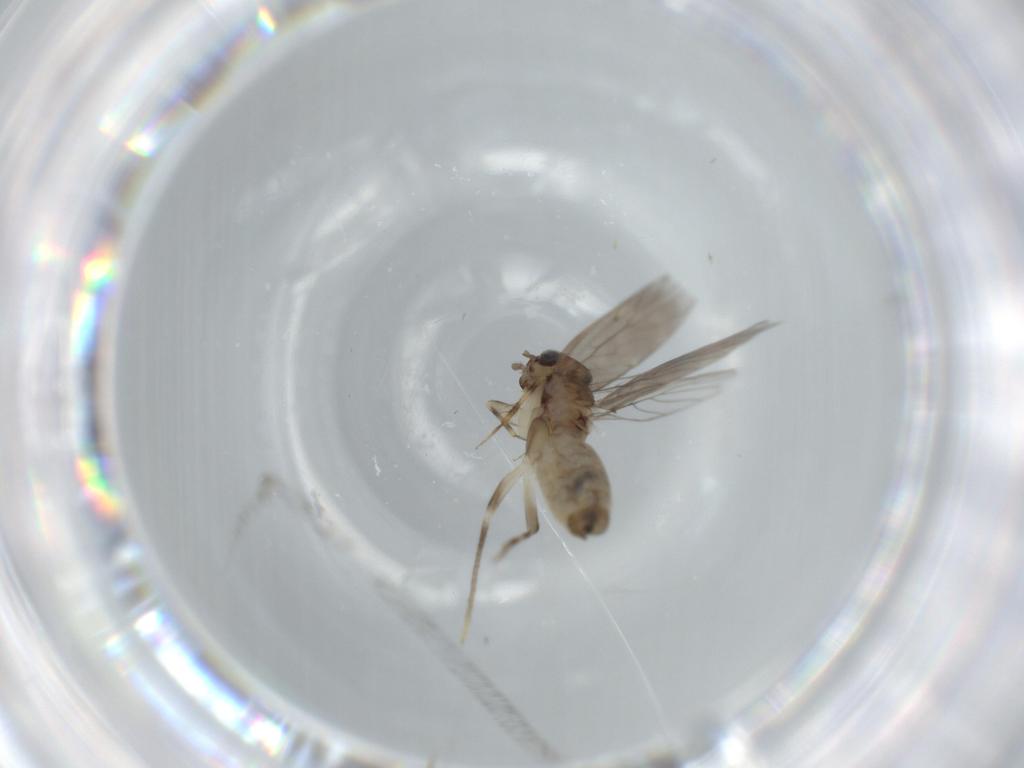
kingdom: Animalia
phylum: Arthropoda
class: Insecta
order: Psocodea
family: Lepidopsocidae
